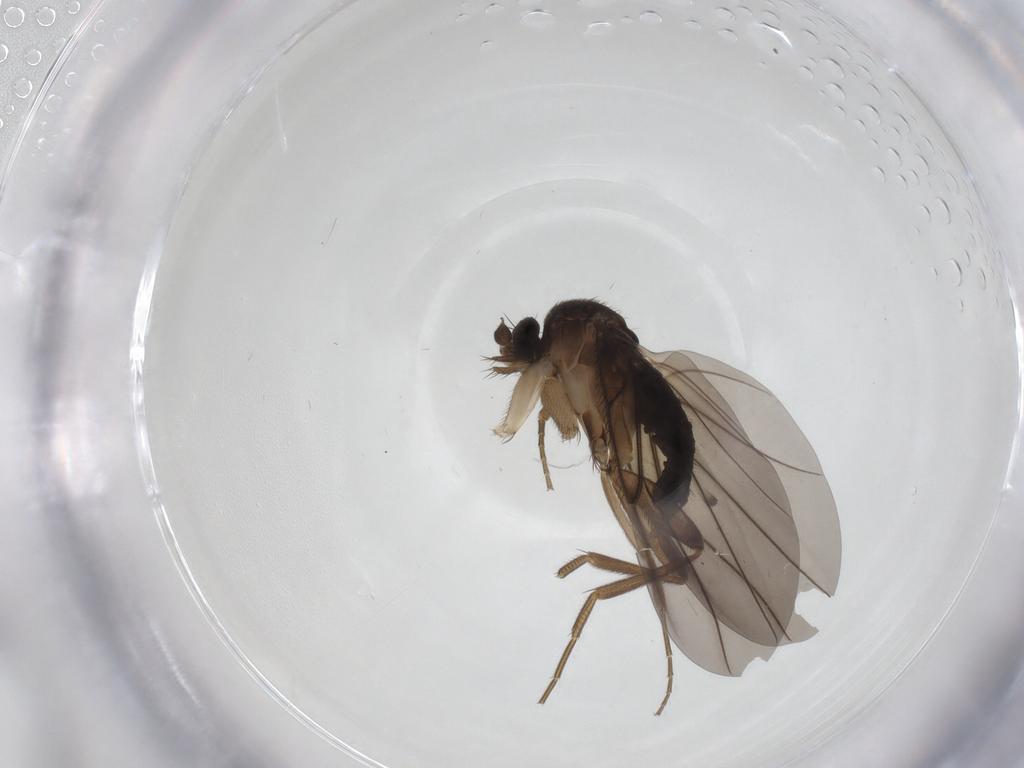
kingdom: Animalia
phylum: Arthropoda
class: Insecta
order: Diptera
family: Phoridae
